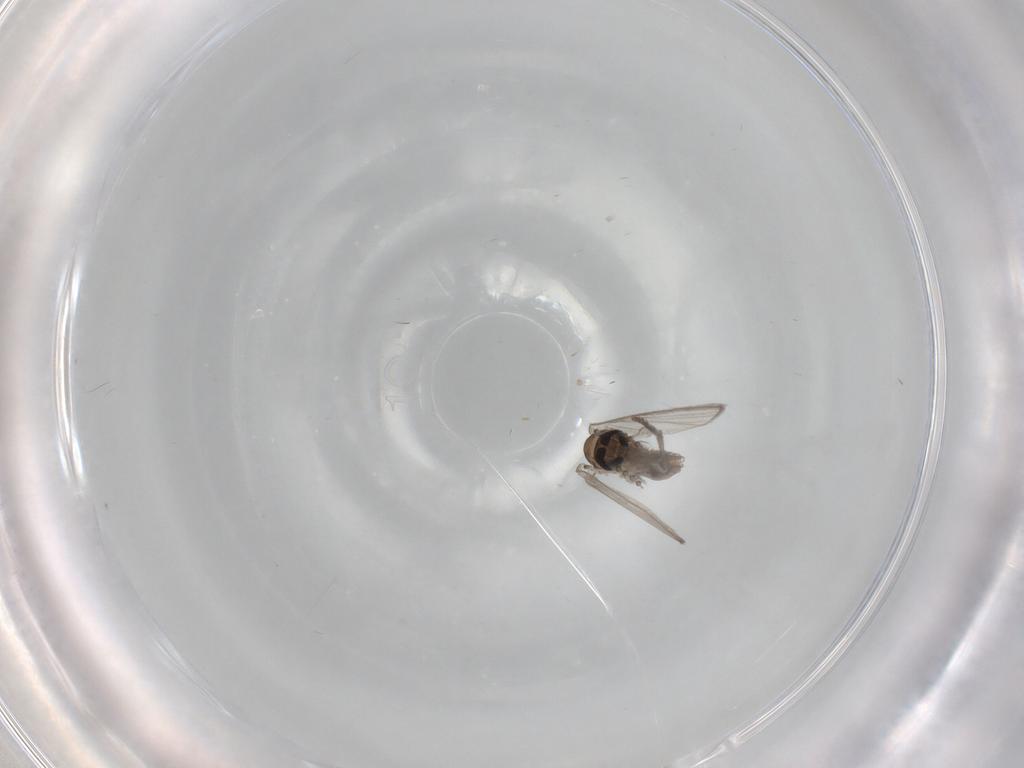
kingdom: Animalia
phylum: Arthropoda
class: Insecta
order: Diptera
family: Psychodidae
